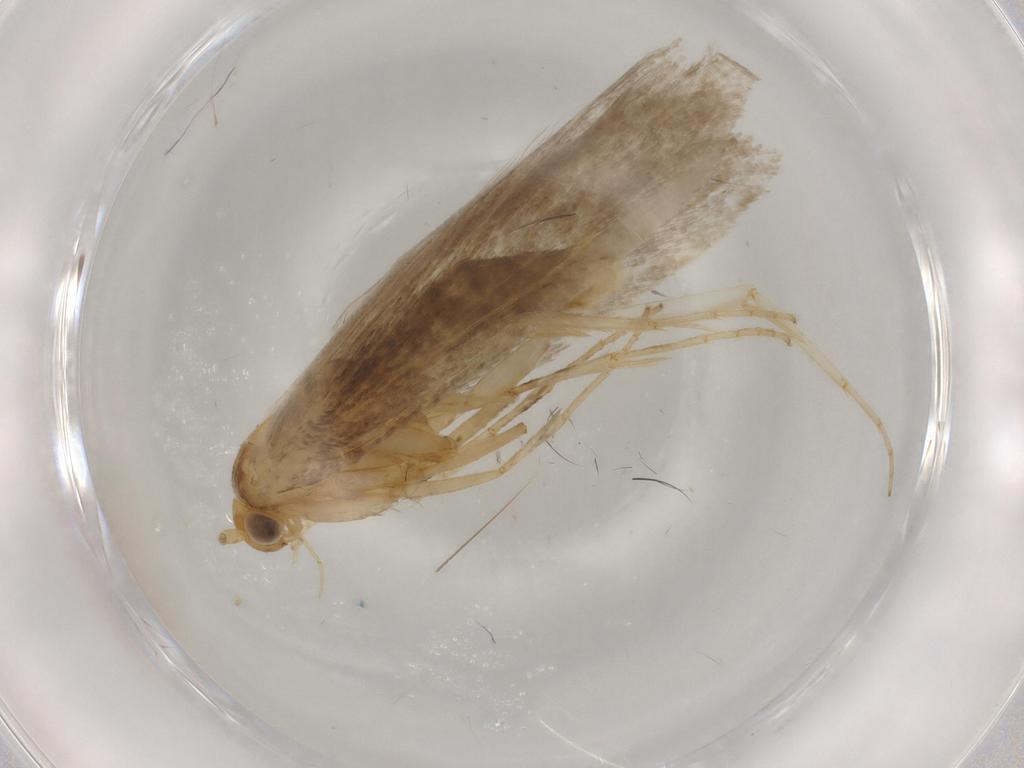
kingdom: Animalia
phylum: Arthropoda
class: Insecta
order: Lepidoptera
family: Argyresthiidae
